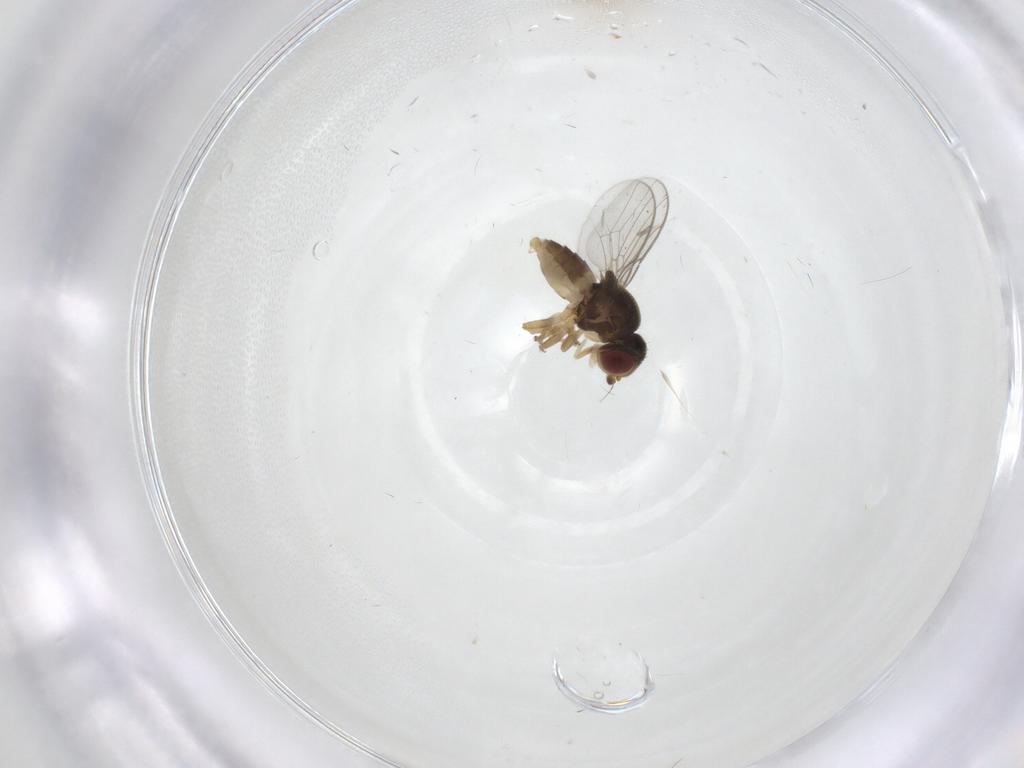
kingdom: Animalia
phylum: Arthropoda
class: Insecta
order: Diptera
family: Chloropidae
